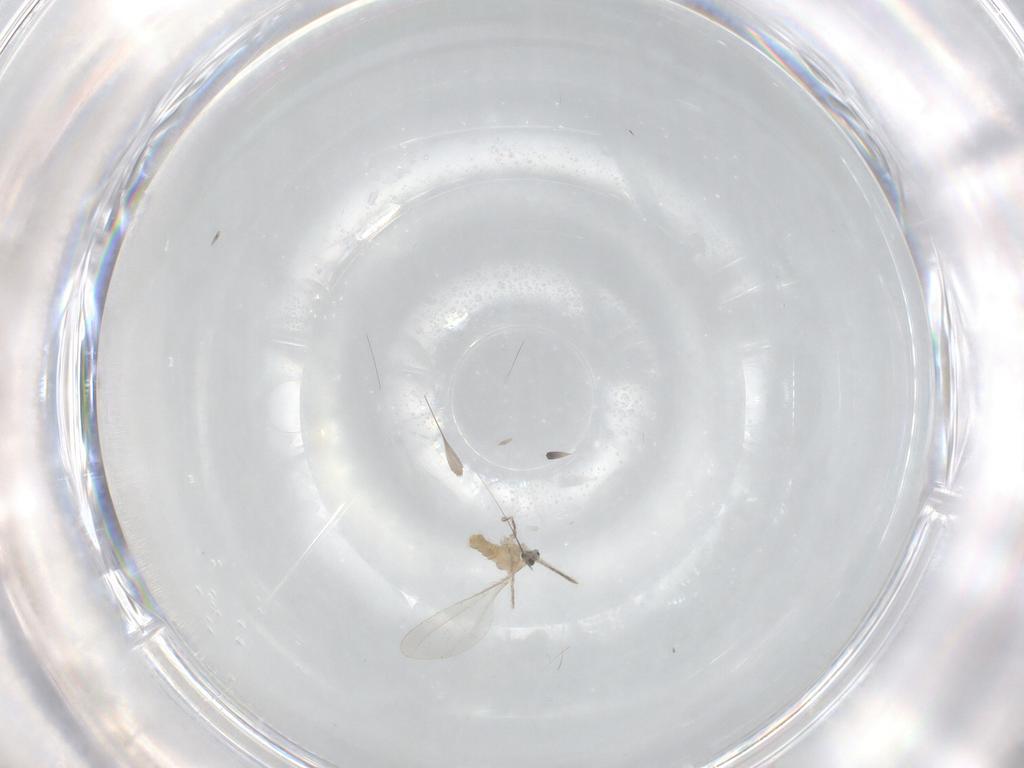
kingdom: Animalia
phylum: Arthropoda
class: Insecta
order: Diptera
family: Cecidomyiidae
